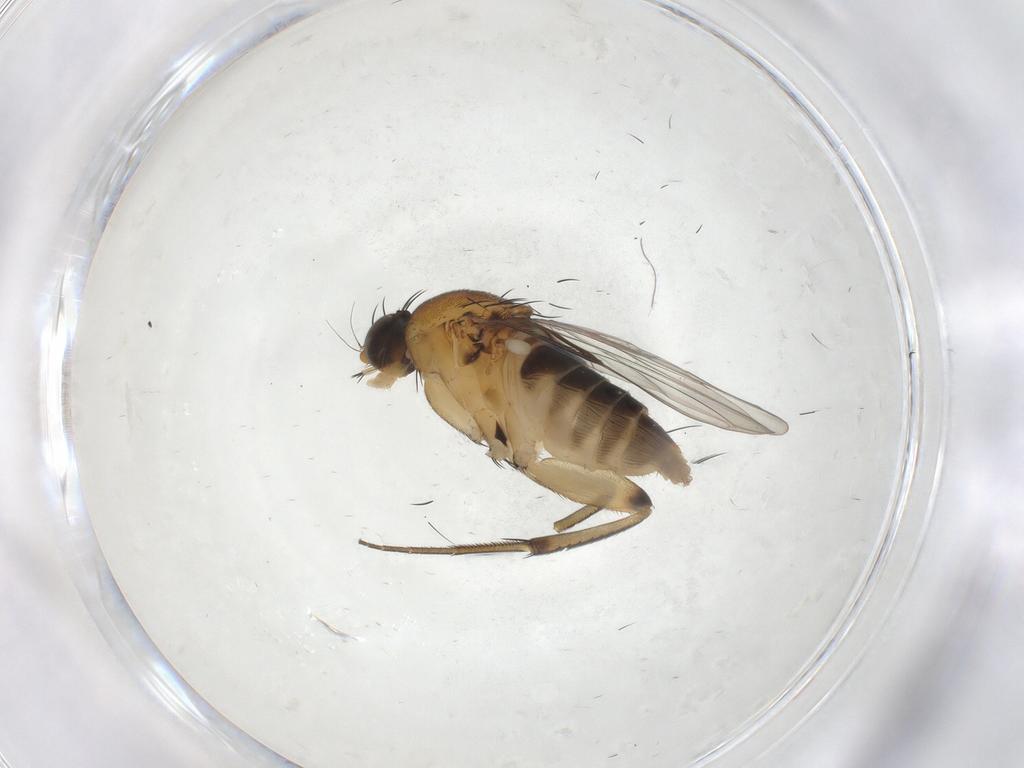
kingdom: Animalia
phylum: Arthropoda
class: Insecta
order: Diptera
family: Phoridae
